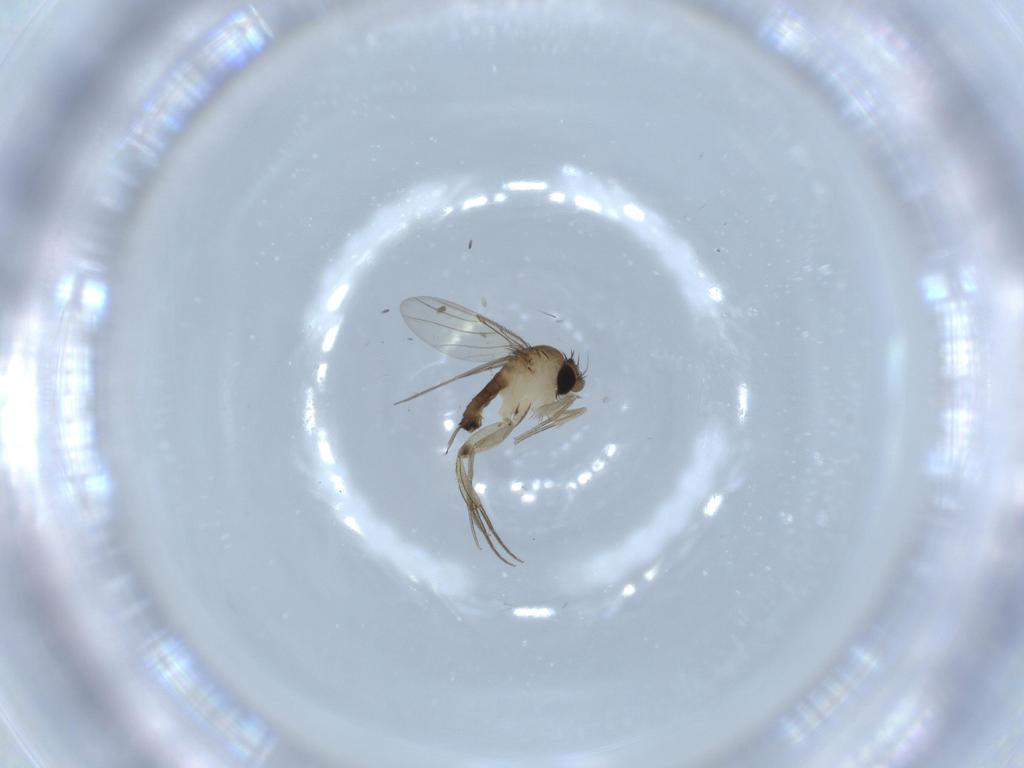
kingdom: Animalia
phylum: Arthropoda
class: Insecta
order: Diptera
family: Phoridae
